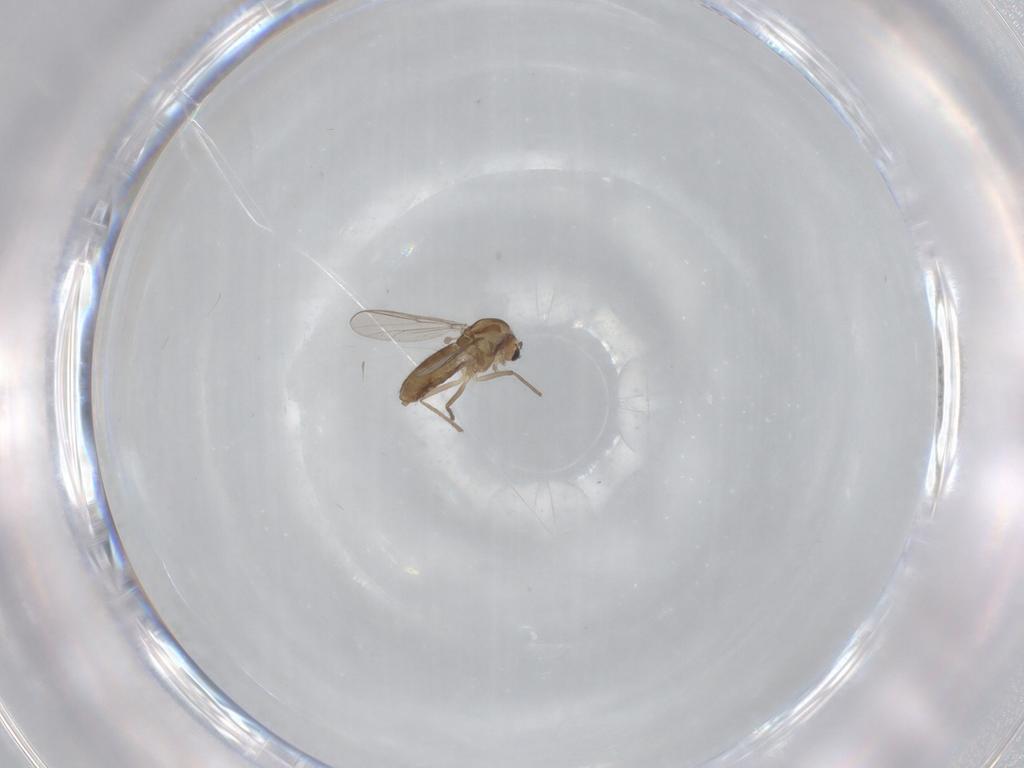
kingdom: Animalia
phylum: Arthropoda
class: Insecta
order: Diptera
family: Chironomidae
